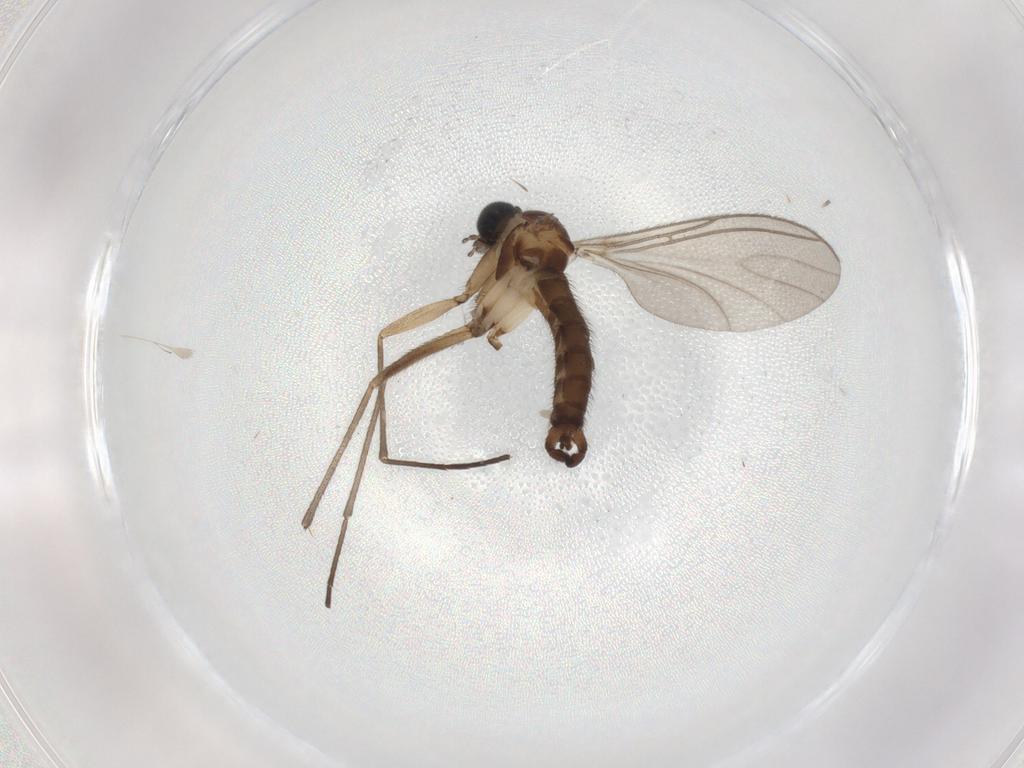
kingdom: Animalia
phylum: Arthropoda
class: Insecta
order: Diptera
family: Sciaridae
